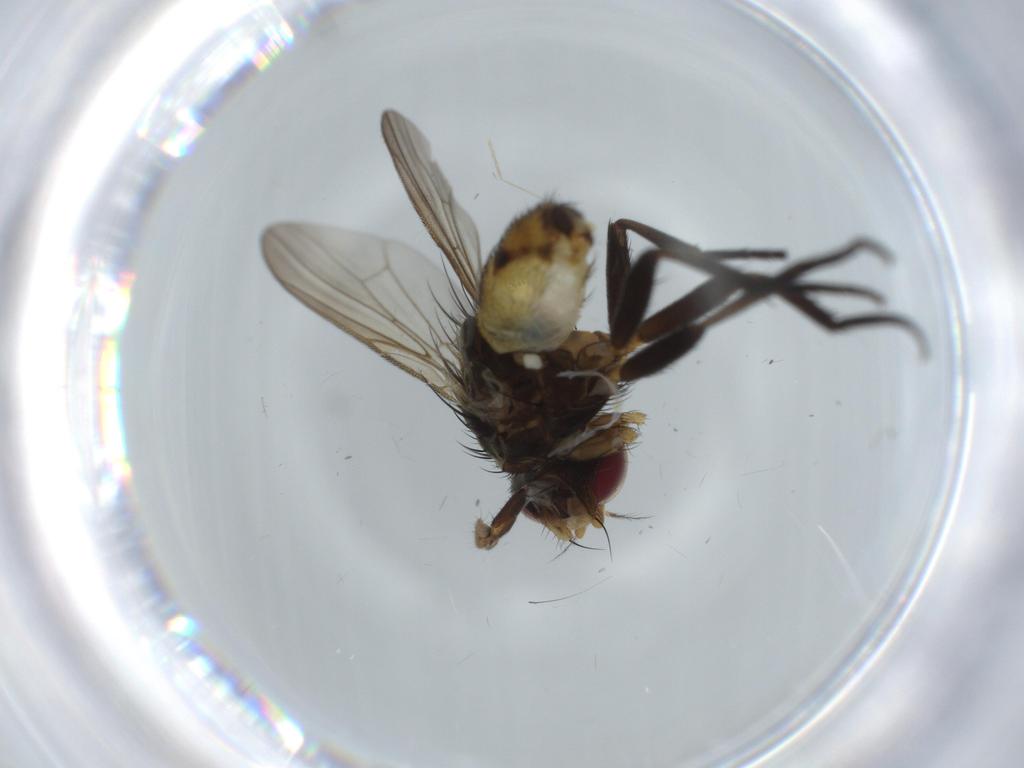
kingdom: Animalia
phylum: Arthropoda
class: Insecta
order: Diptera
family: Anthomyiidae
